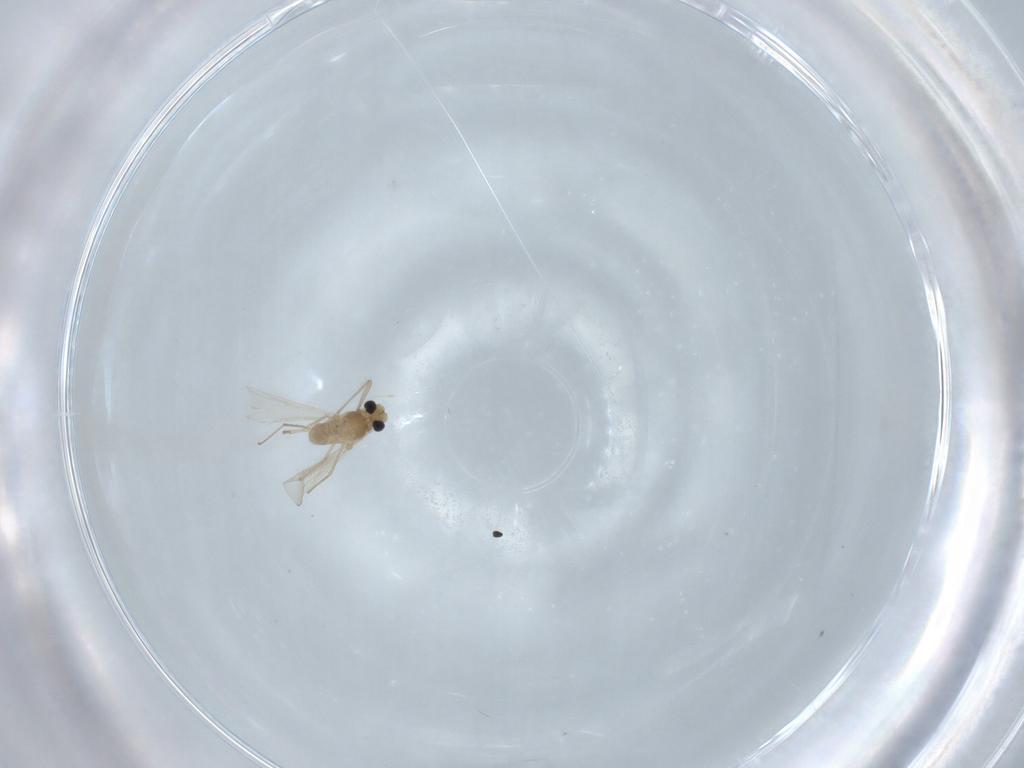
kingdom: Animalia
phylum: Arthropoda
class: Insecta
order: Diptera
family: Chironomidae
